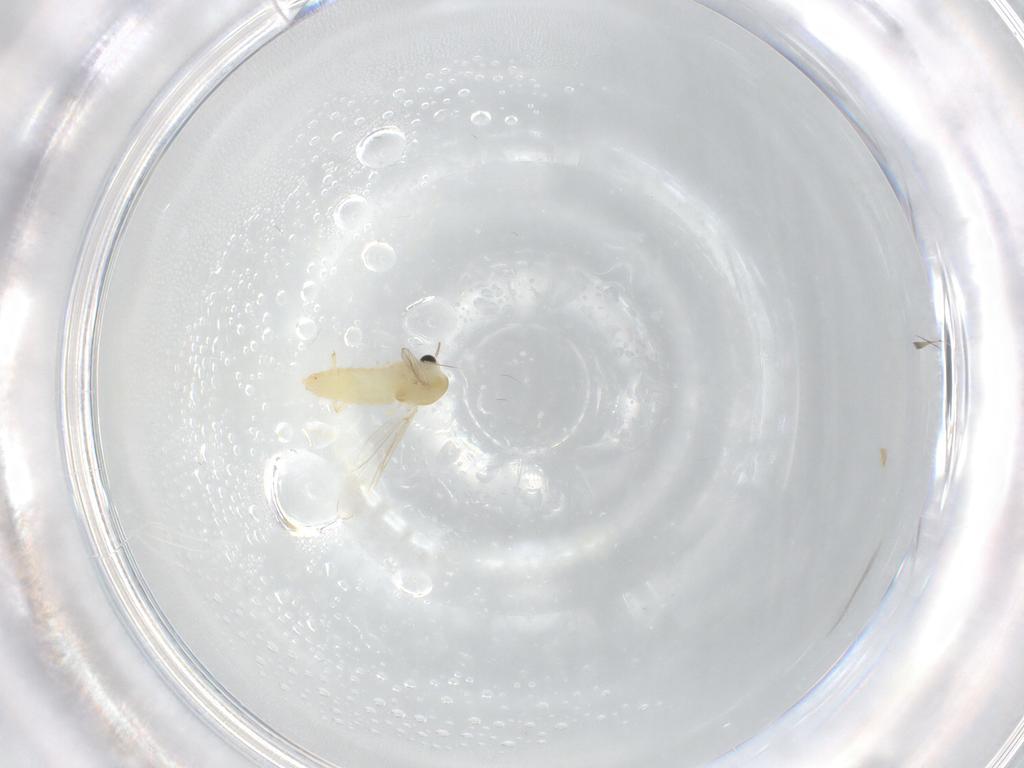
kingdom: Animalia
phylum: Arthropoda
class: Insecta
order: Diptera
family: Chironomidae
